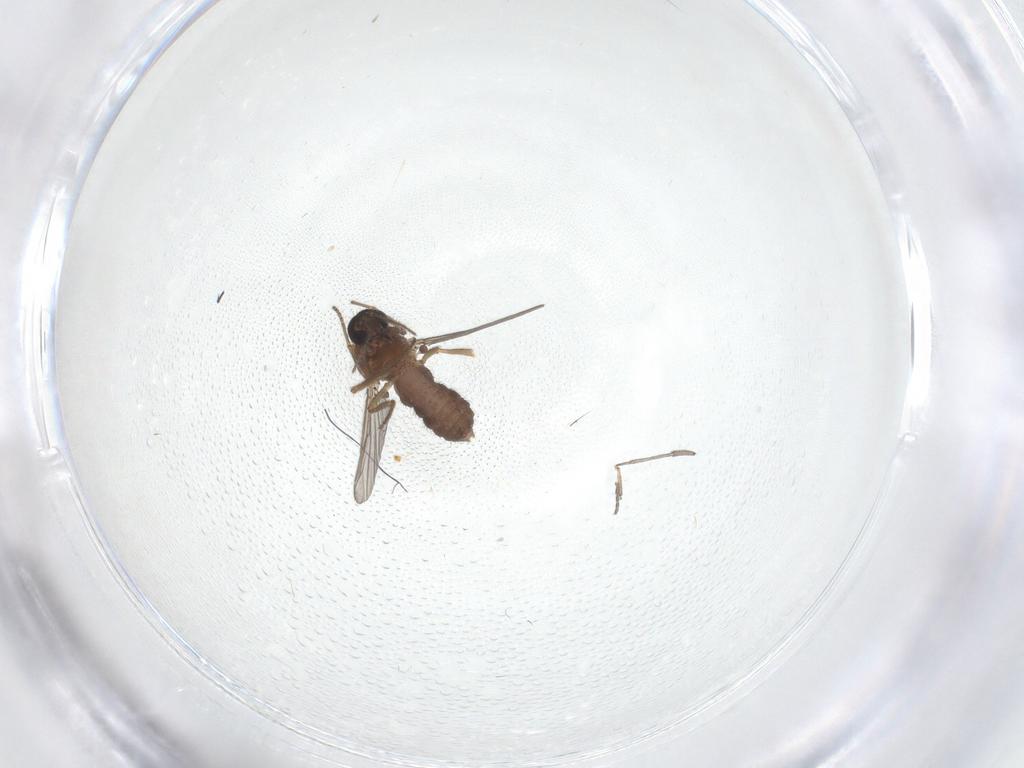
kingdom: Animalia
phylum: Arthropoda
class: Insecta
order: Diptera
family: Ceratopogonidae
